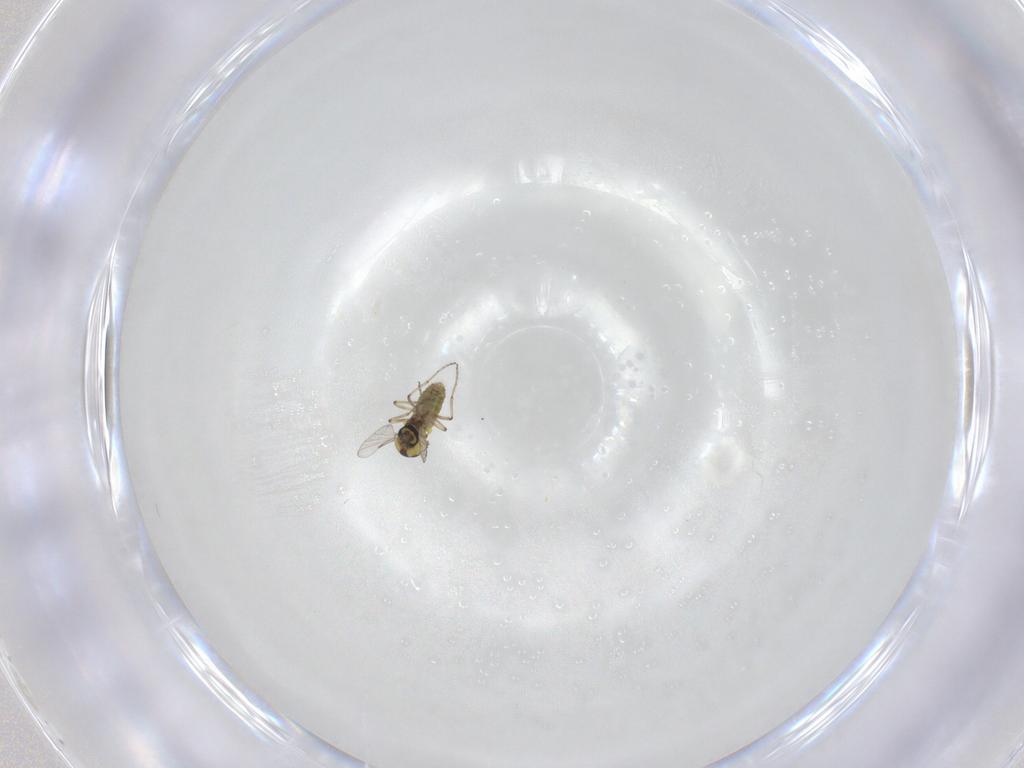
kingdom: Animalia
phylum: Arthropoda
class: Insecta
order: Diptera
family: Ceratopogonidae
